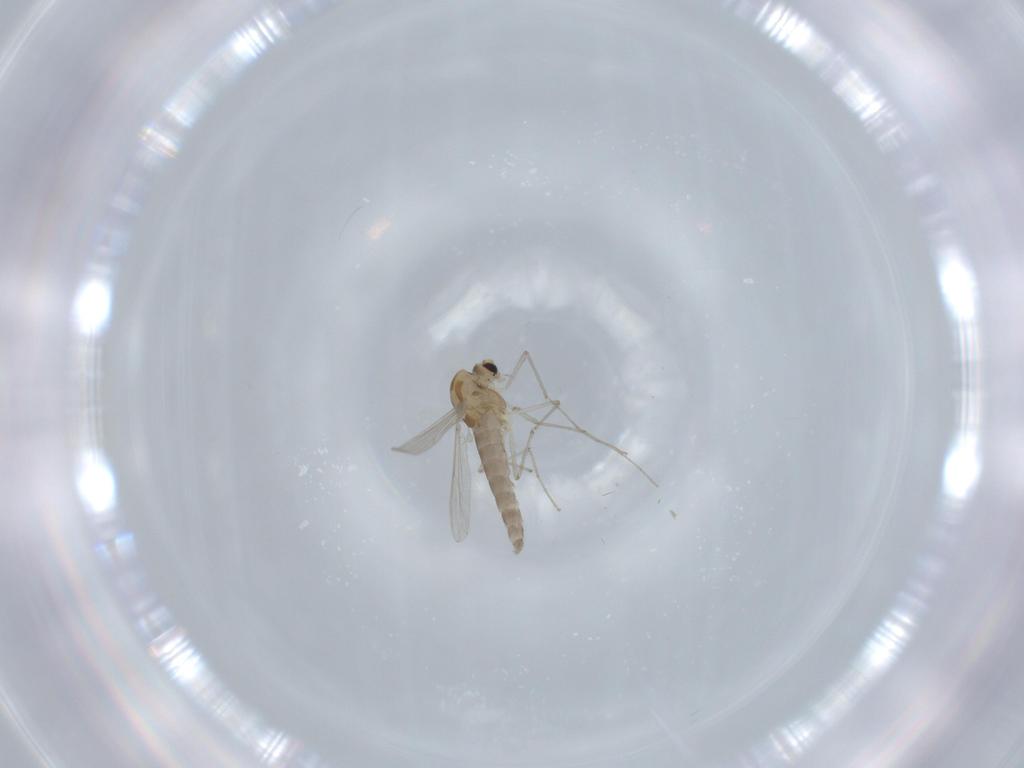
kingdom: Animalia
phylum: Arthropoda
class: Insecta
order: Diptera
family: Chironomidae
